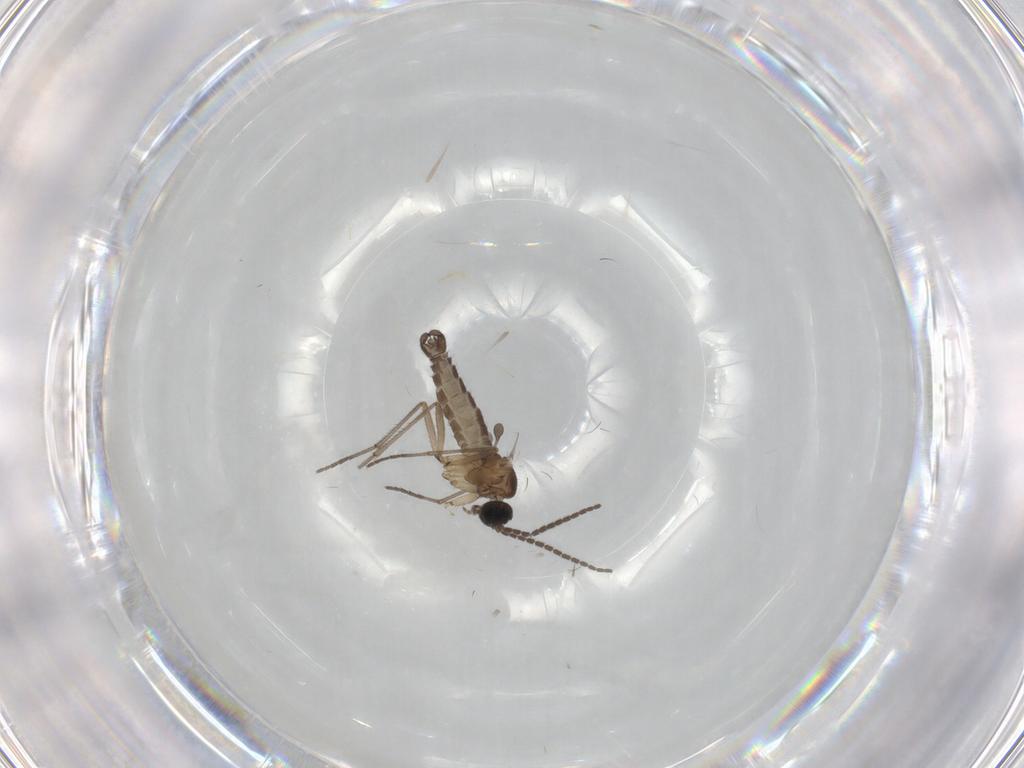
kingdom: Animalia
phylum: Arthropoda
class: Insecta
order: Diptera
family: Sciaridae
